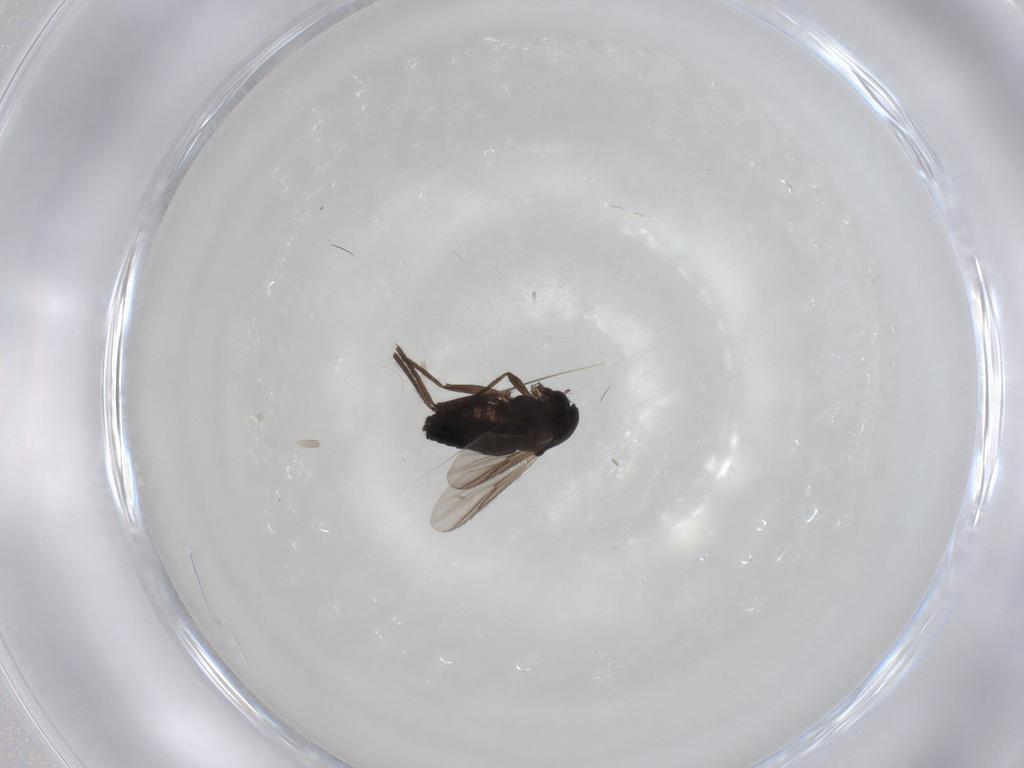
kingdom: Animalia
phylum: Arthropoda
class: Insecta
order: Diptera
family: Chironomidae
